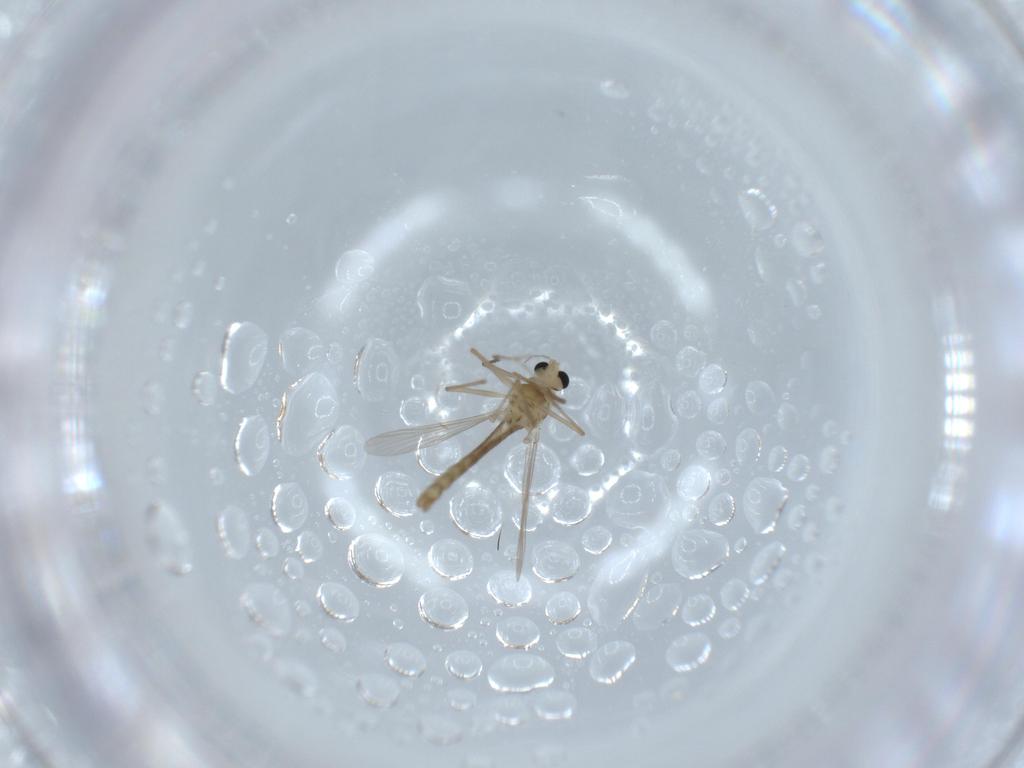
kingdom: Animalia
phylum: Arthropoda
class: Insecta
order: Diptera
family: Chironomidae
